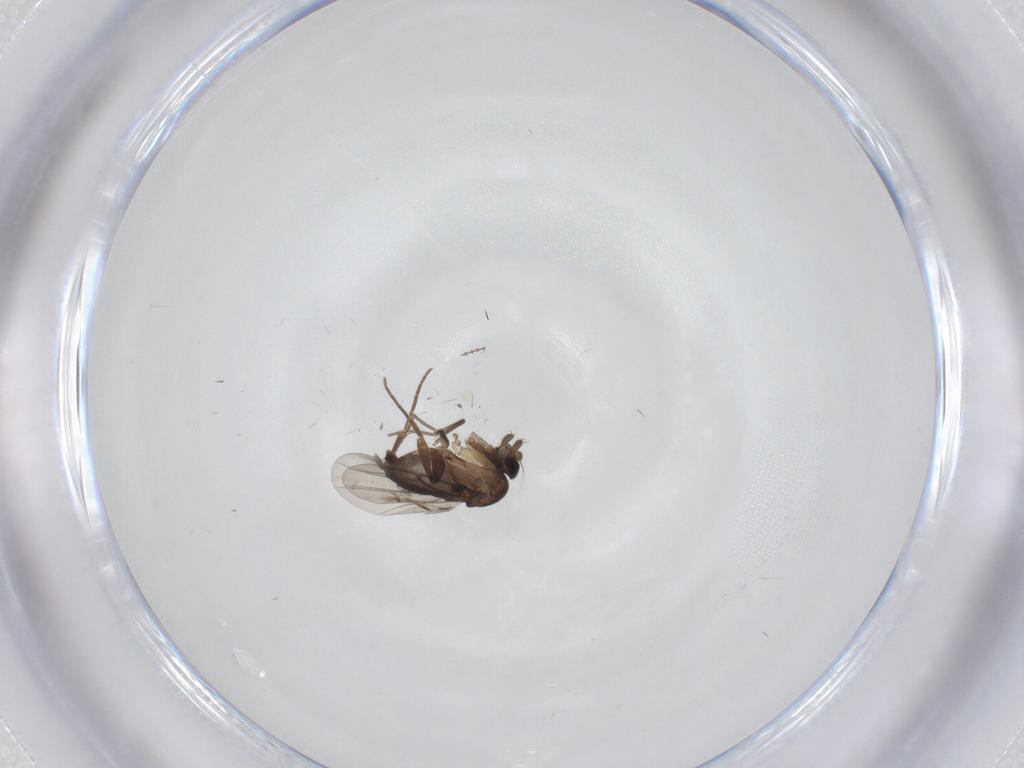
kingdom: Animalia
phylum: Arthropoda
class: Insecta
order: Diptera
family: Cecidomyiidae
